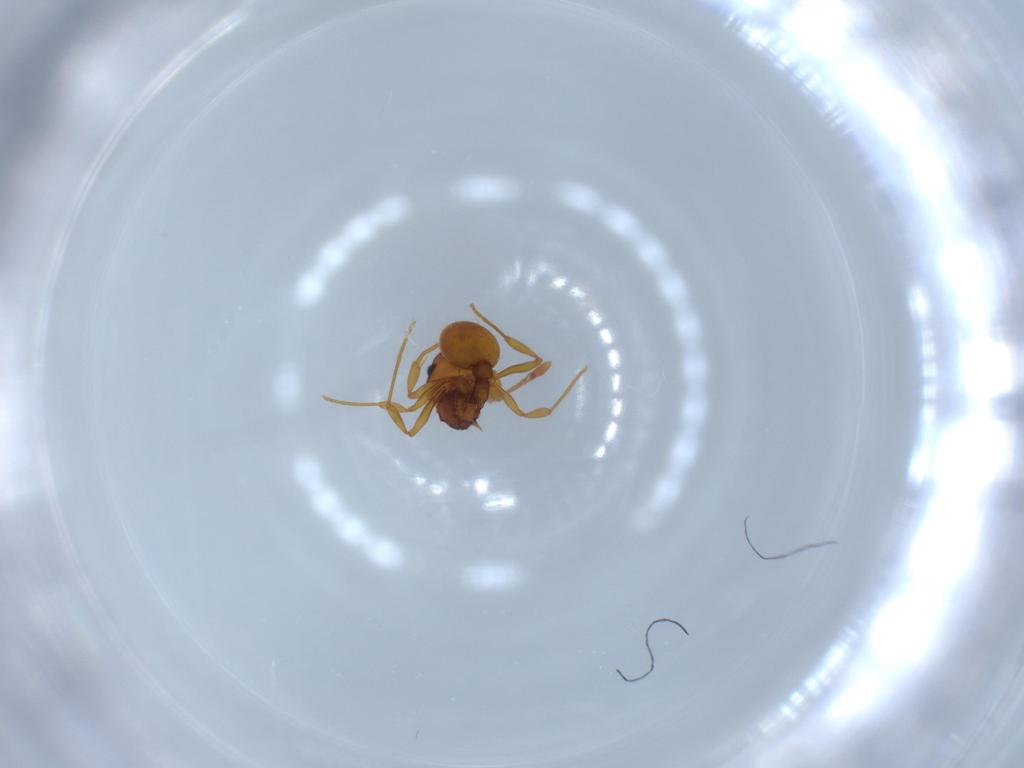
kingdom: Animalia
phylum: Arthropoda
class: Insecta
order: Hymenoptera
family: Formicidae
